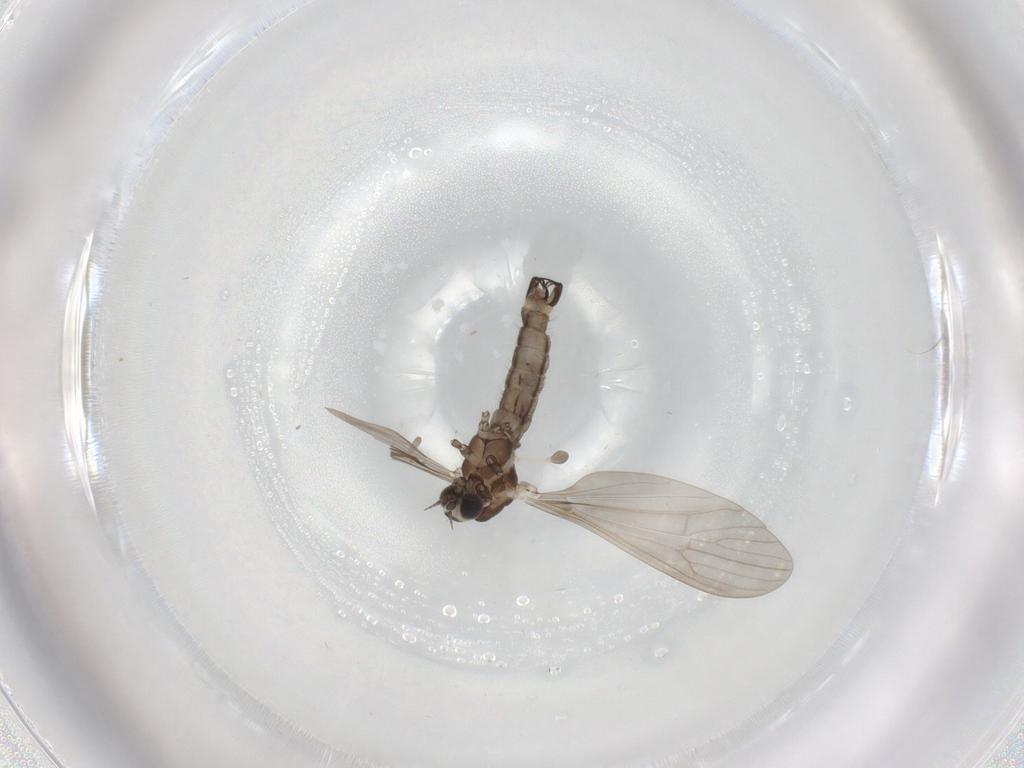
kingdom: Animalia
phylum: Arthropoda
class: Insecta
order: Diptera
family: Limoniidae
